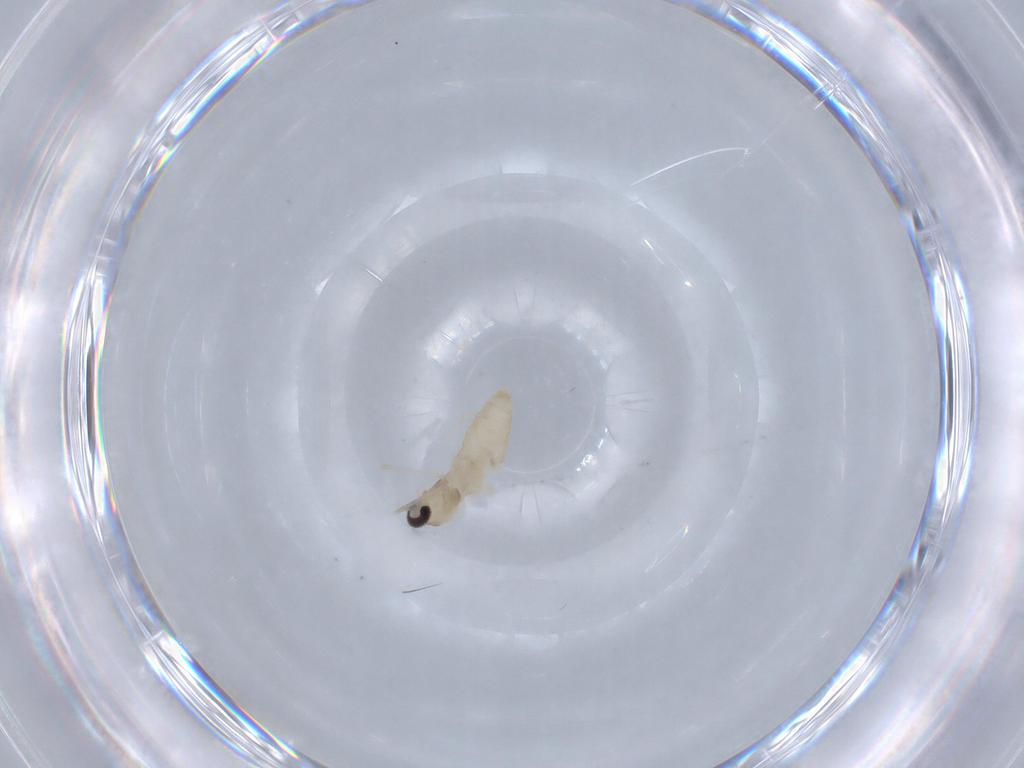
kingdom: Animalia
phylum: Arthropoda
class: Insecta
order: Diptera
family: Cecidomyiidae
